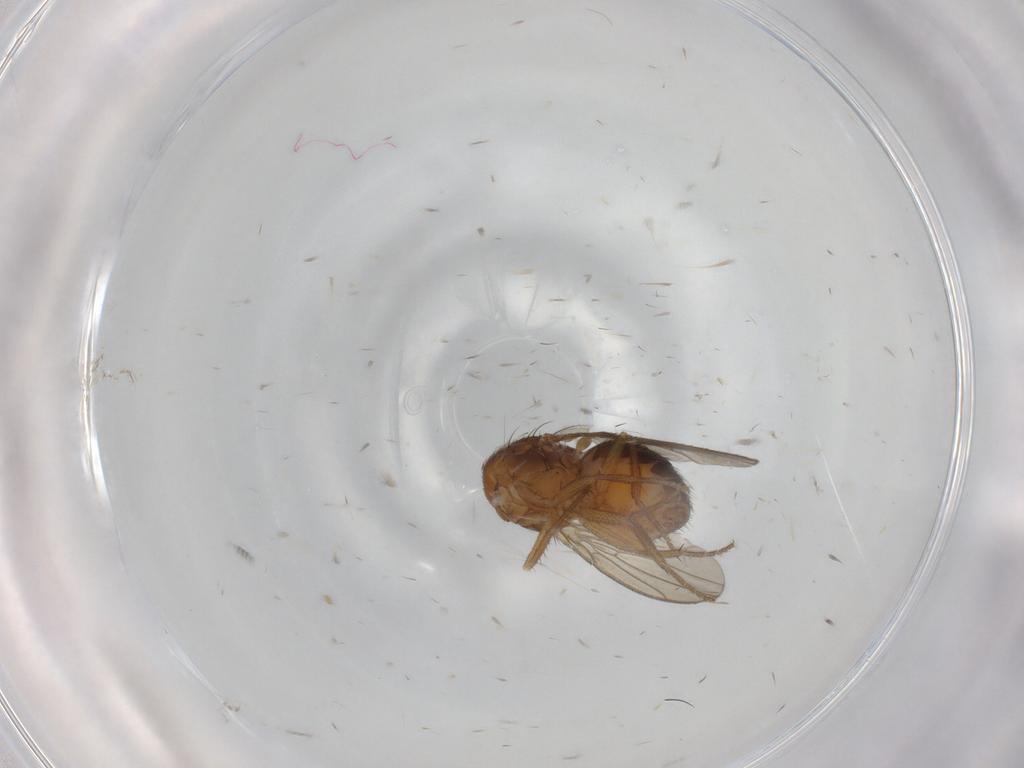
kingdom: Animalia
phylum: Arthropoda
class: Insecta
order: Diptera
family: Drosophilidae
